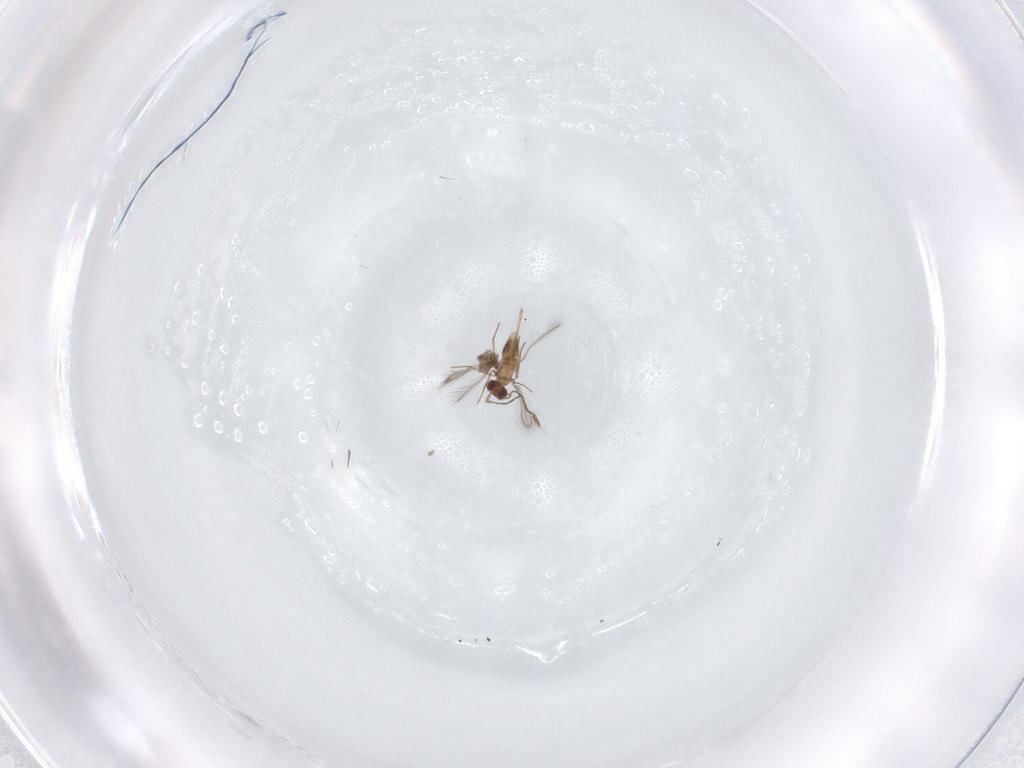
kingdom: Animalia
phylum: Arthropoda
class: Insecta
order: Hymenoptera
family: Mymaridae
